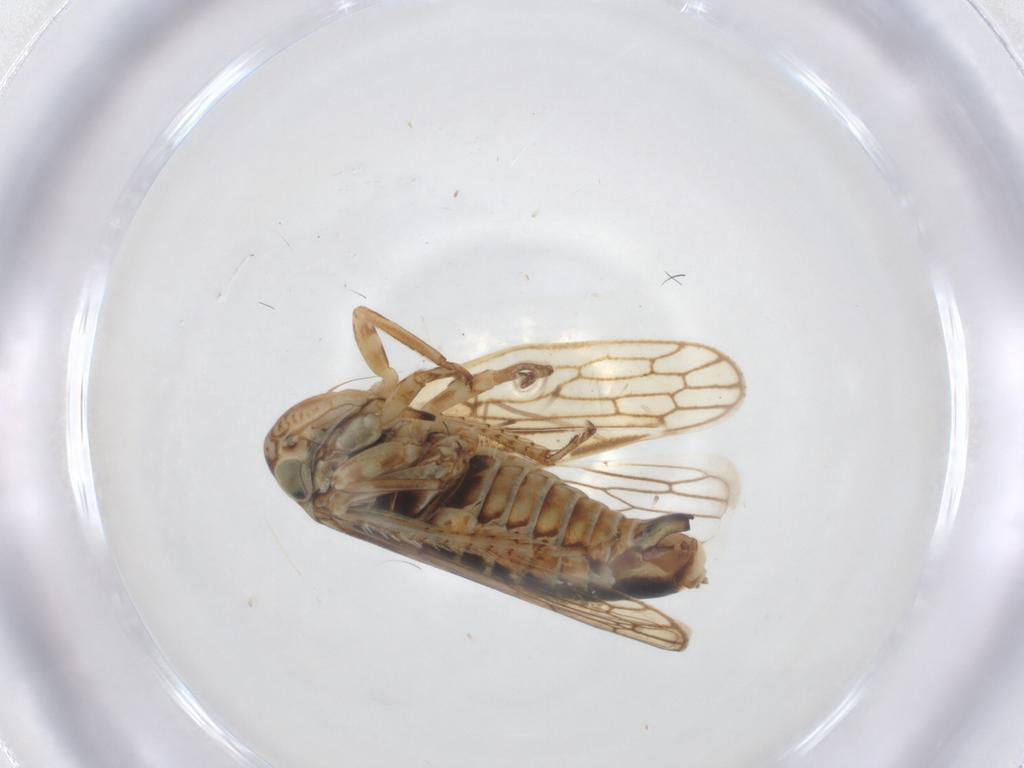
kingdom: Animalia
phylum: Arthropoda
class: Insecta
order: Hemiptera
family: Cicadellidae
